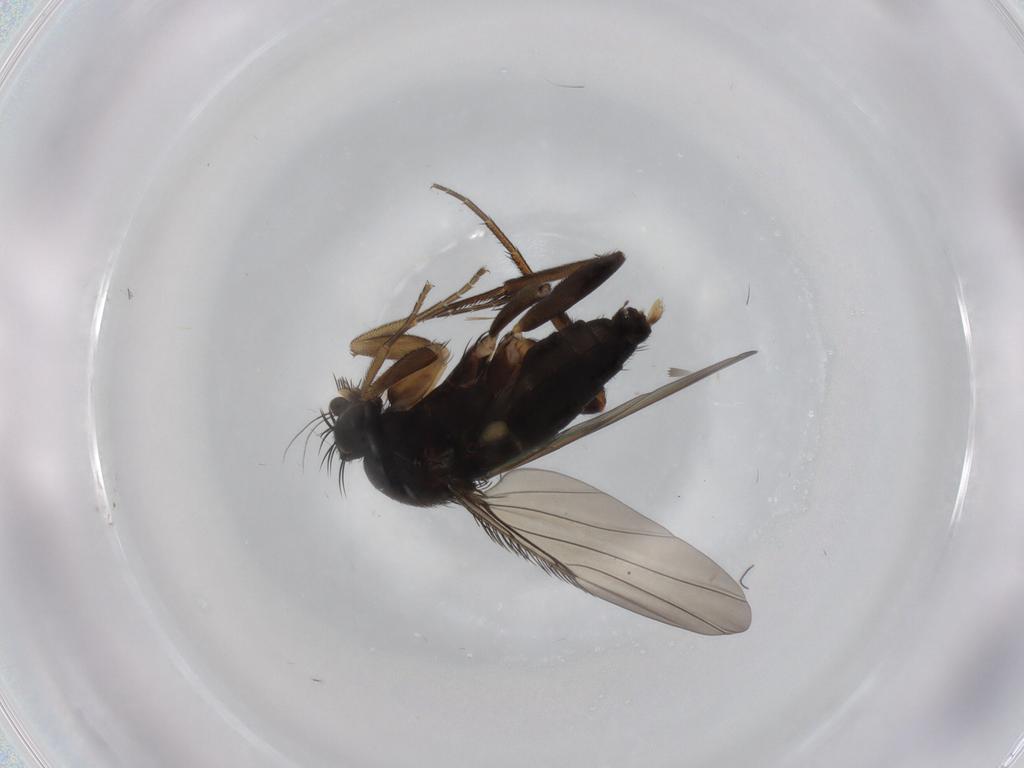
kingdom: Animalia
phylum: Arthropoda
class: Insecta
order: Diptera
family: Phoridae
